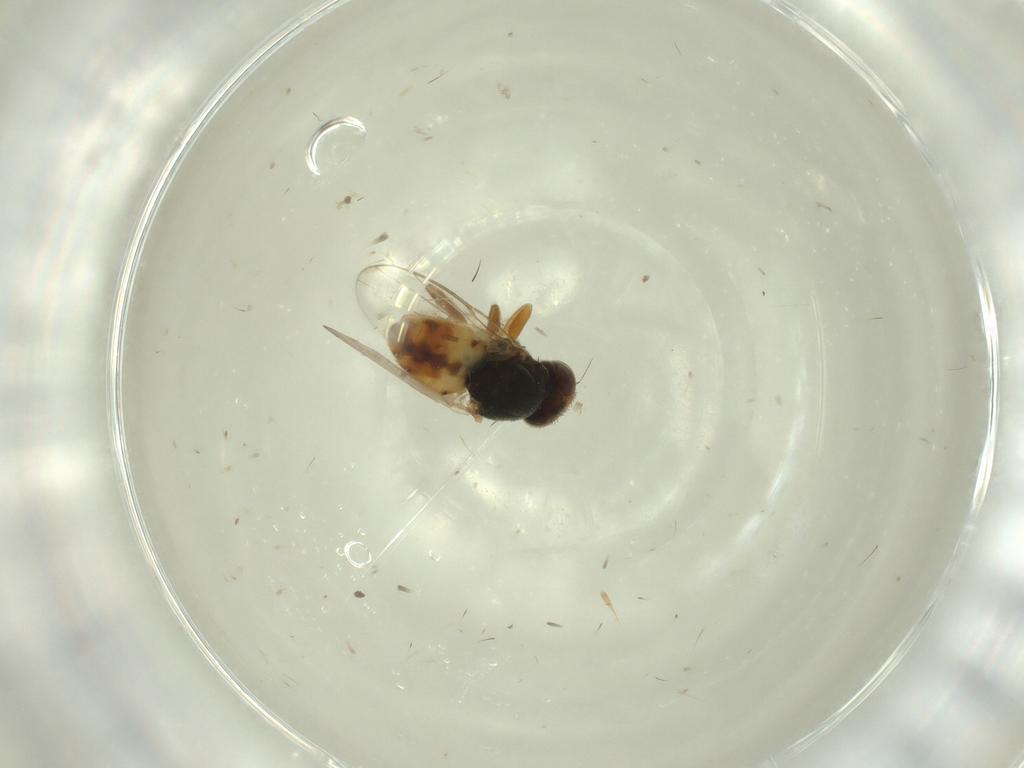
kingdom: Animalia
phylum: Arthropoda
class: Insecta
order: Diptera
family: Chloropidae
